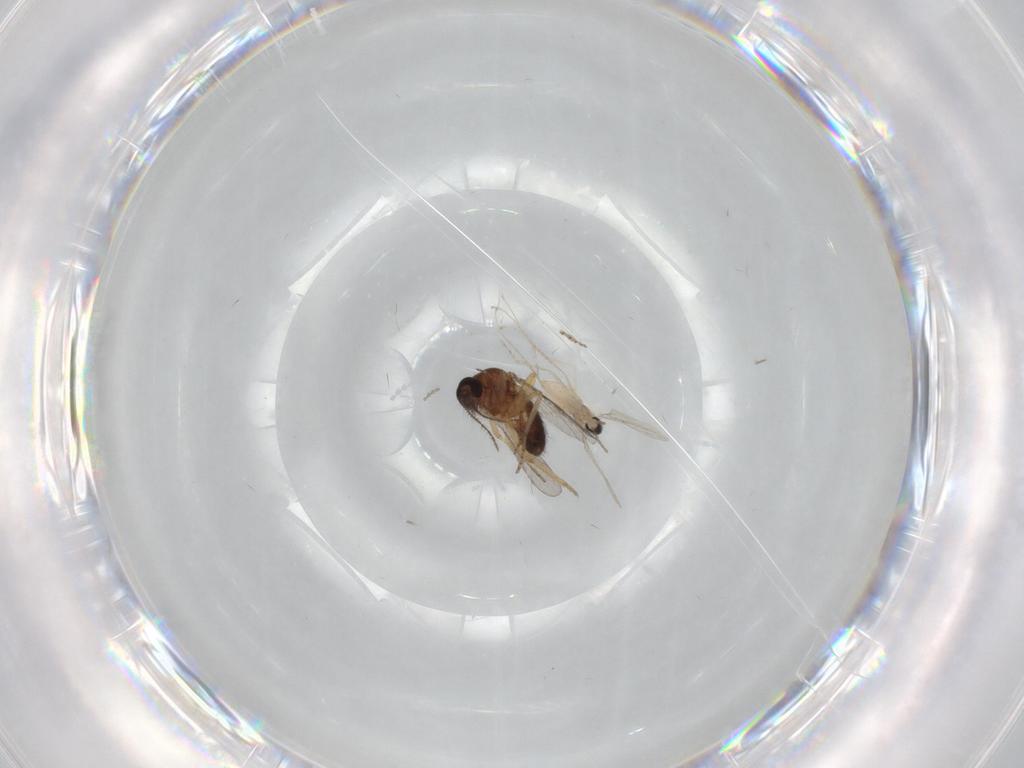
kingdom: Animalia
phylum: Arthropoda
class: Insecta
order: Diptera
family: Ceratopogonidae
